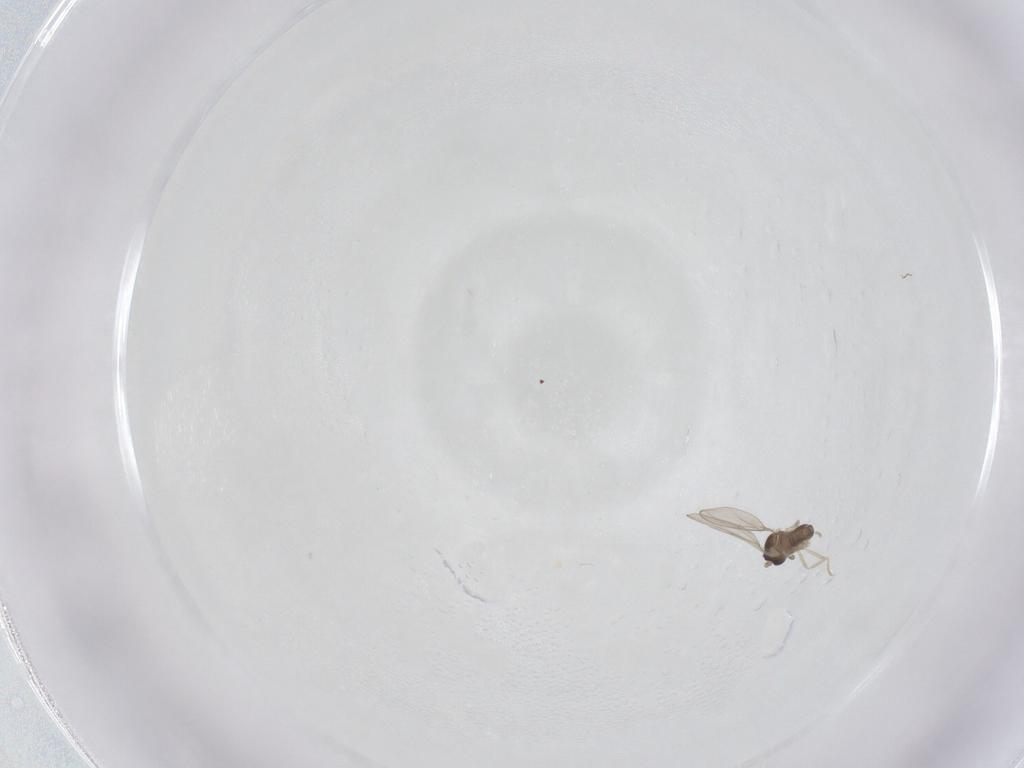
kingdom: Animalia
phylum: Arthropoda
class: Insecta
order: Diptera
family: Cecidomyiidae
